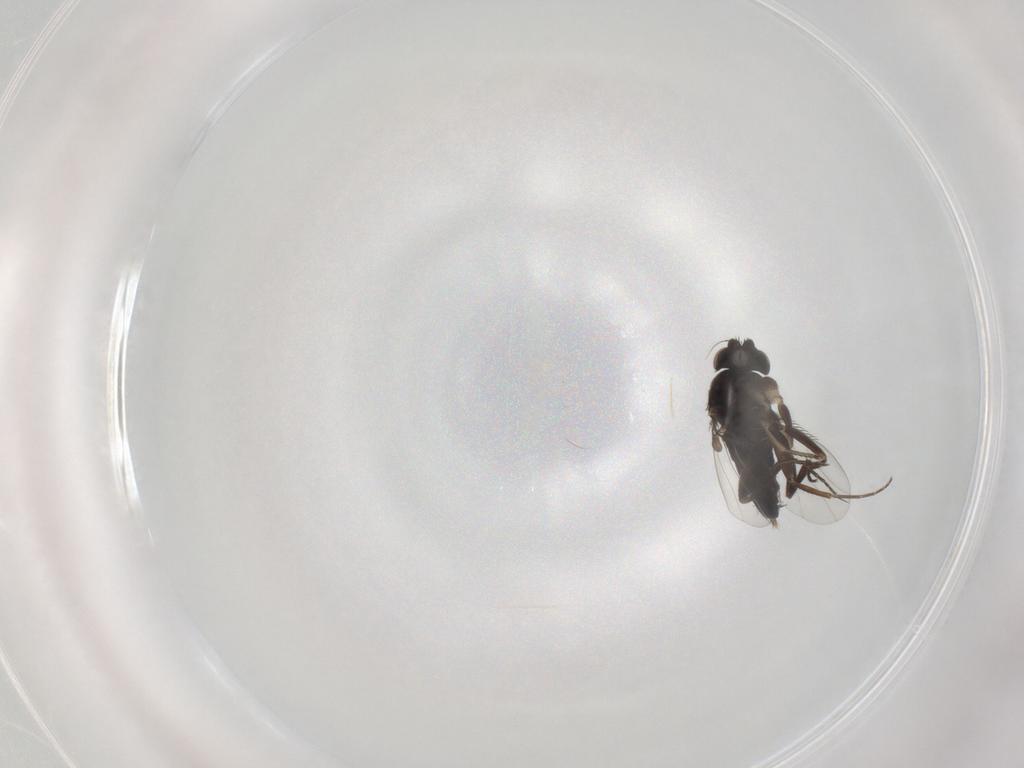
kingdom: Animalia
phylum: Arthropoda
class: Insecta
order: Diptera
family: Phoridae
